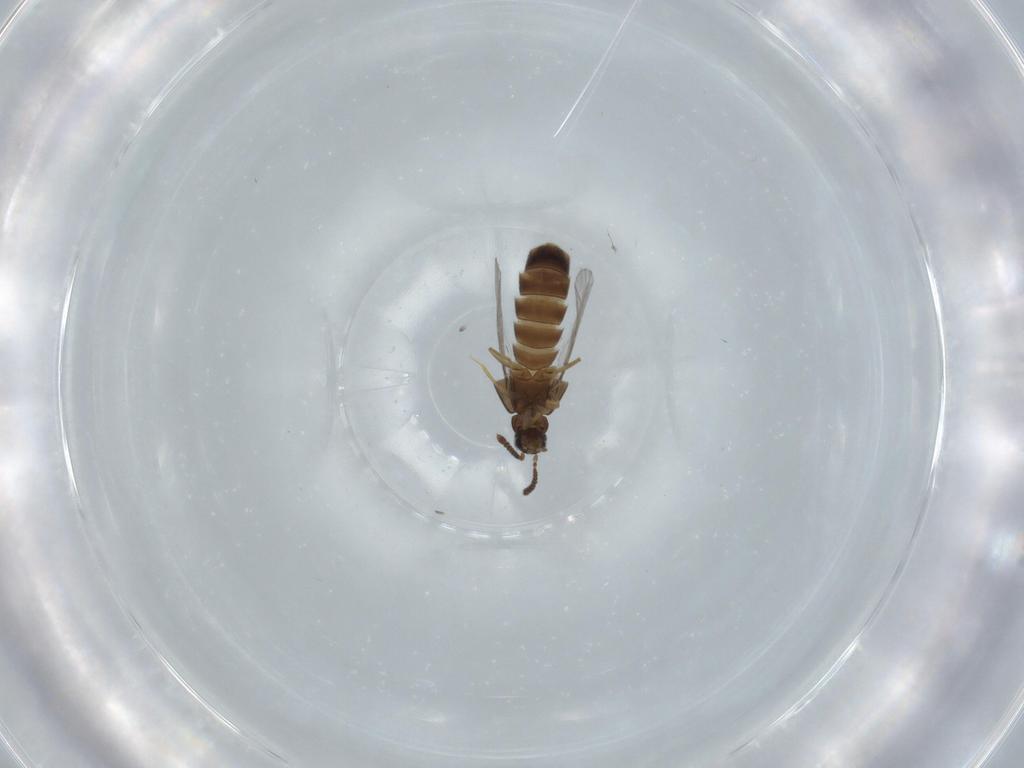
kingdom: Animalia
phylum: Arthropoda
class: Insecta
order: Coleoptera
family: Staphylinidae
